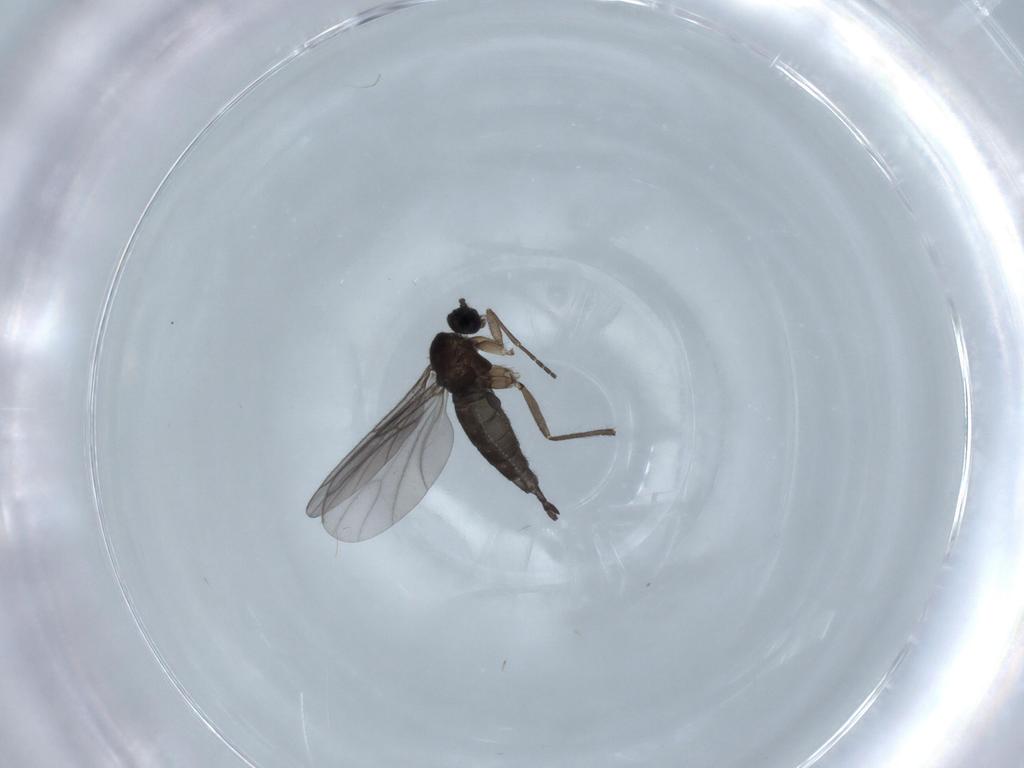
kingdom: Animalia
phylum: Arthropoda
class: Insecta
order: Diptera
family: Sciaridae
